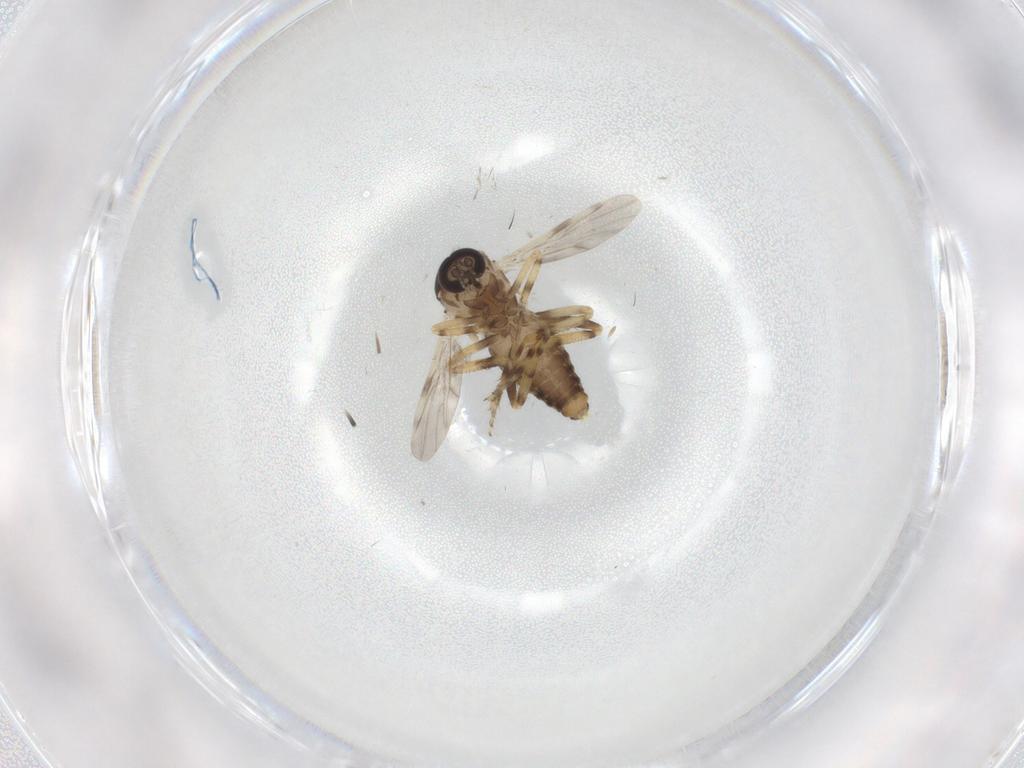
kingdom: Animalia
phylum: Arthropoda
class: Insecta
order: Diptera
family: Ceratopogonidae
